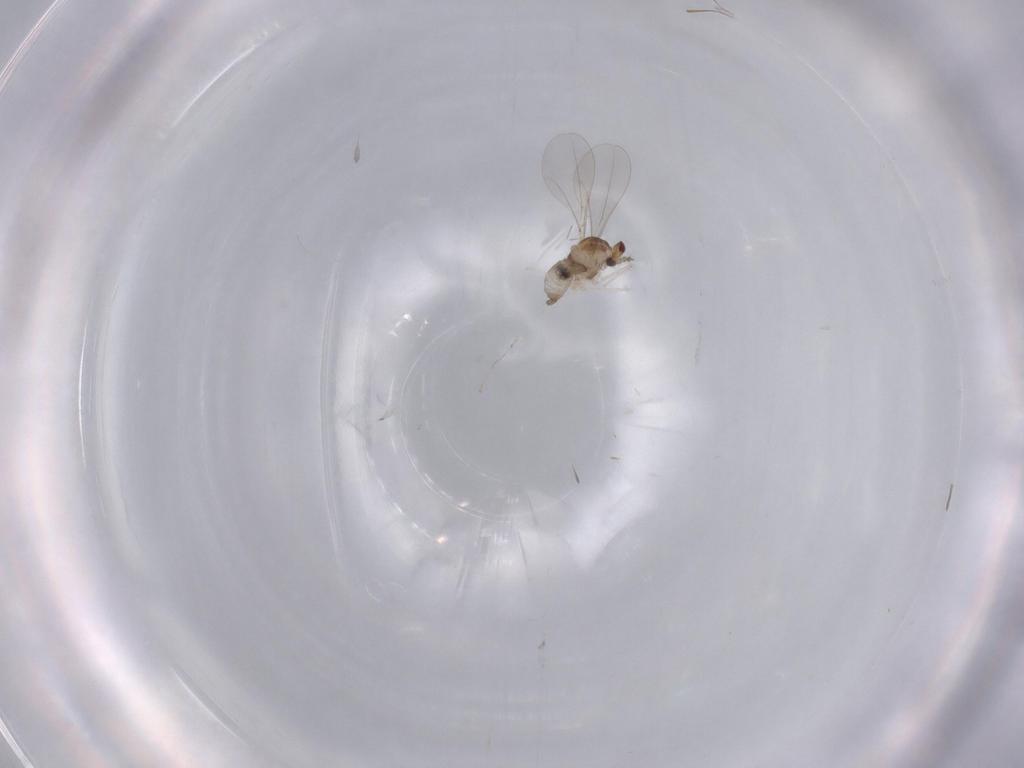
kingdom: Animalia
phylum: Arthropoda
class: Insecta
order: Diptera
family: Cecidomyiidae
